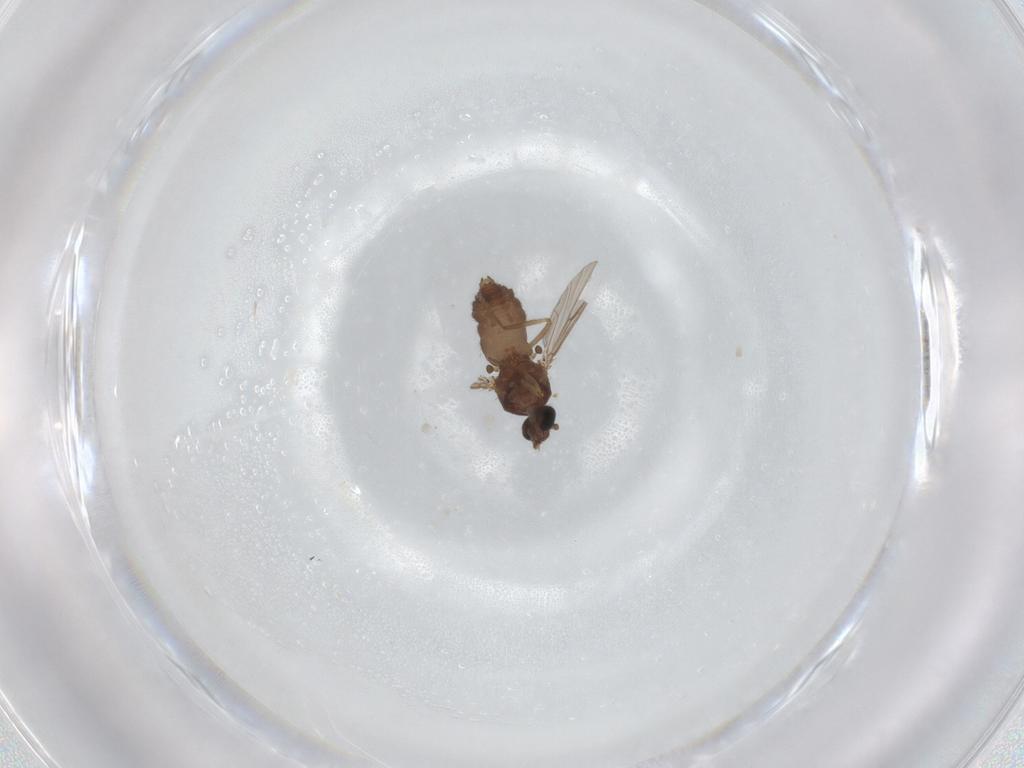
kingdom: Animalia
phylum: Arthropoda
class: Insecta
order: Diptera
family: Ceratopogonidae
